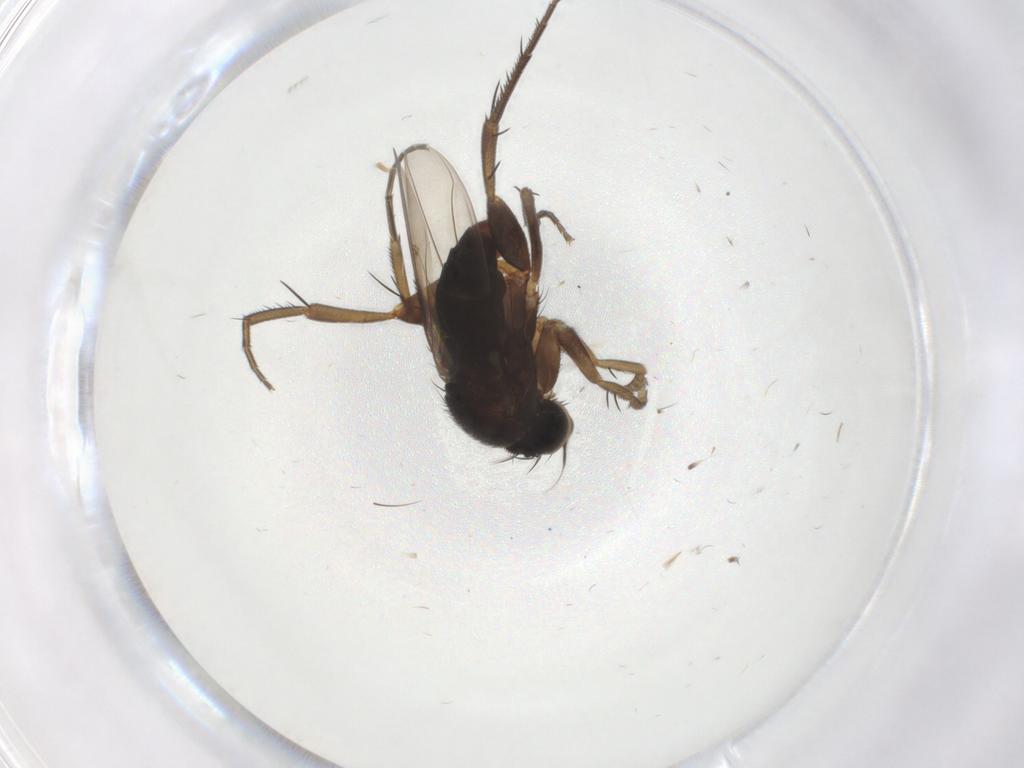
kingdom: Animalia
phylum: Arthropoda
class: Insecta
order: Diptera
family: Phoridae
